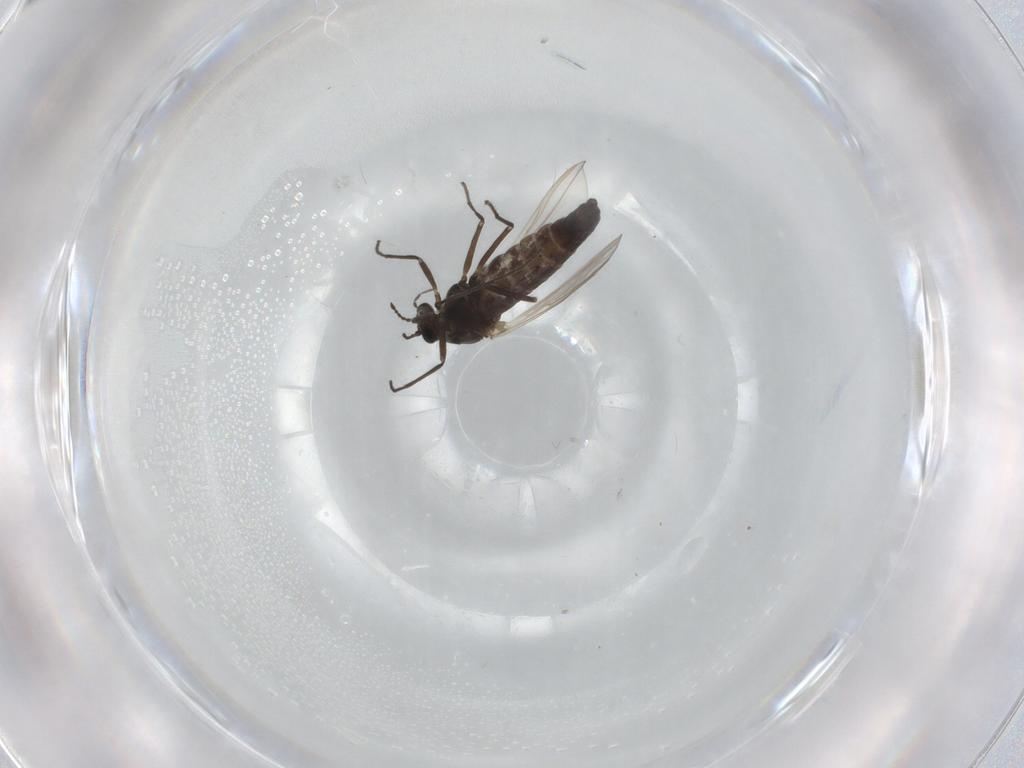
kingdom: Animalia
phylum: Arthropoda
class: Insecta
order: Diptera
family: Chironomidae
